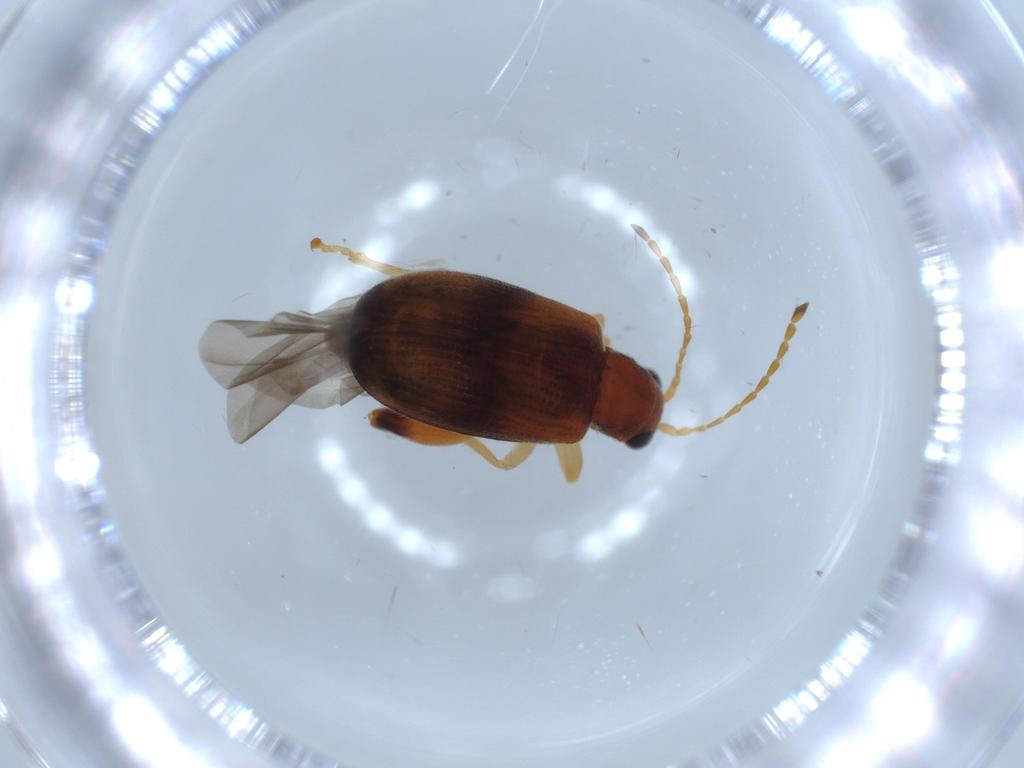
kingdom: Animalia
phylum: Arthropoda
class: Insecta
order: Coleoptera
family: Chrysomelidae
